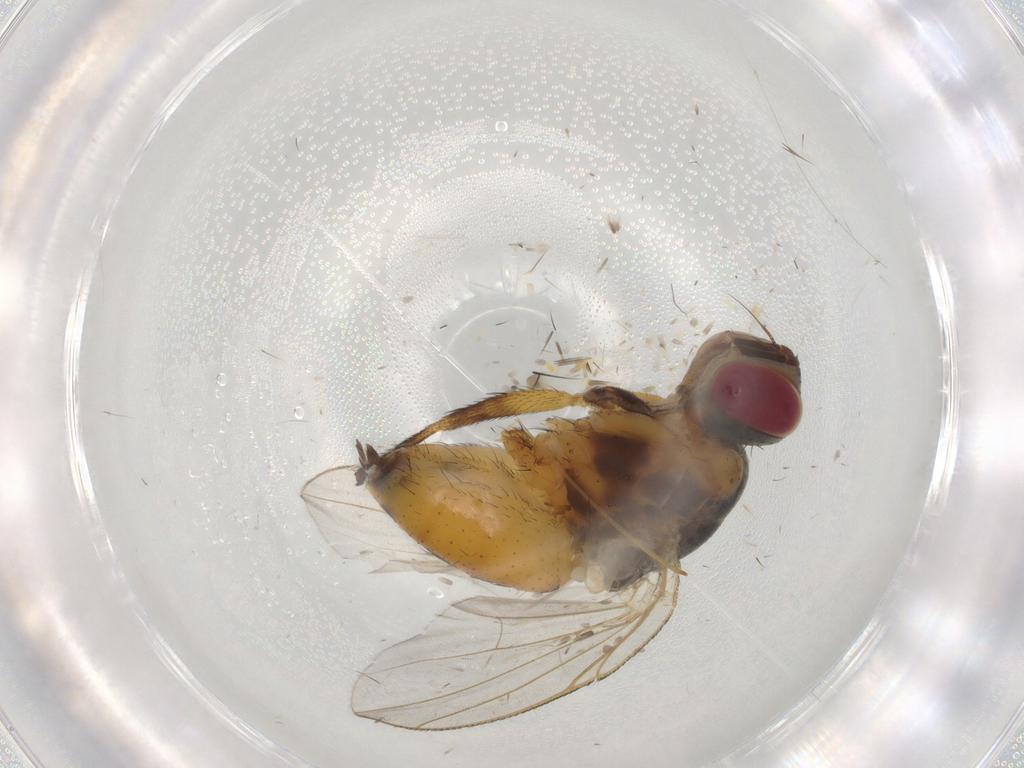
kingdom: Animalia
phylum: Arthropoda
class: Insecta
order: Diptera
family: Muscidae
